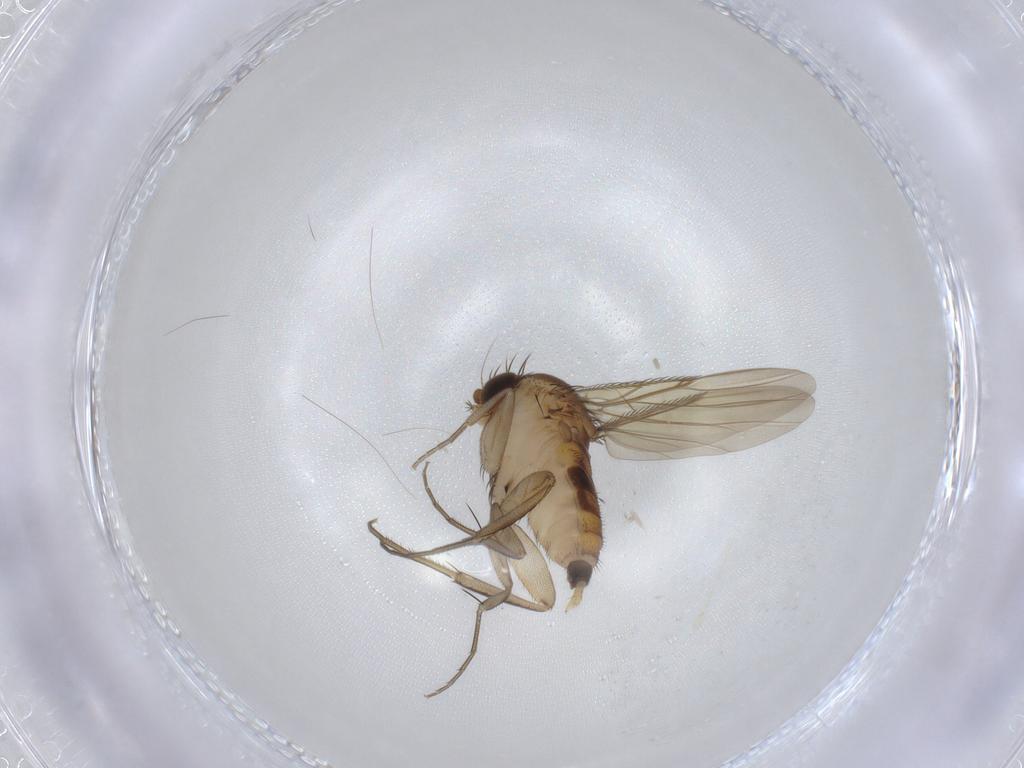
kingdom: Animalia
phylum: Arthropoda
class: Insecta
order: Diptera
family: Phoridae
